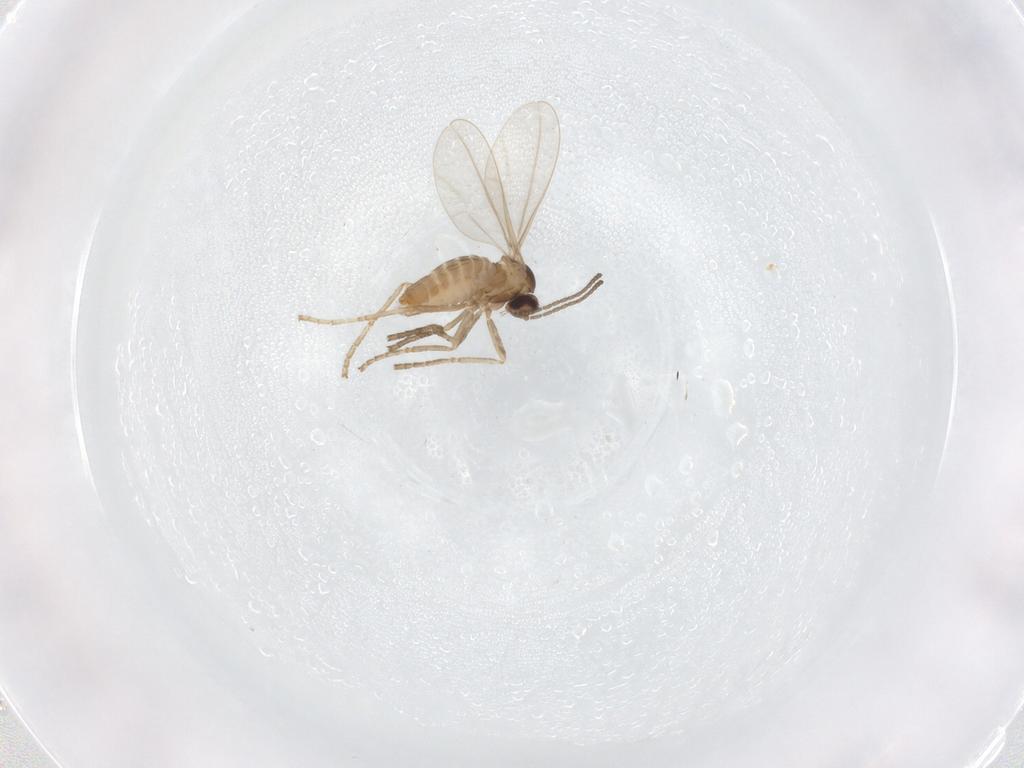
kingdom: Animalia
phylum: Arthropoda
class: Insecta
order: Diptera
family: Cecidomyiidae
